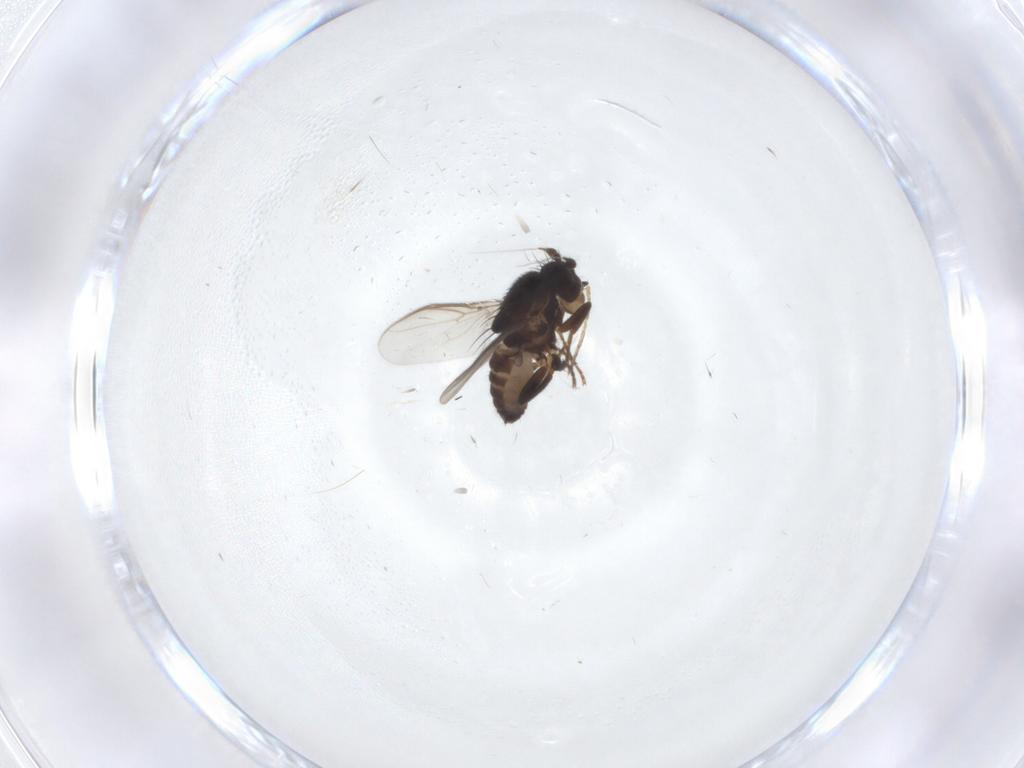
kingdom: Animalia
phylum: Arthropoda
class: Insecta
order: Diptera
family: Sphaeroceridae
